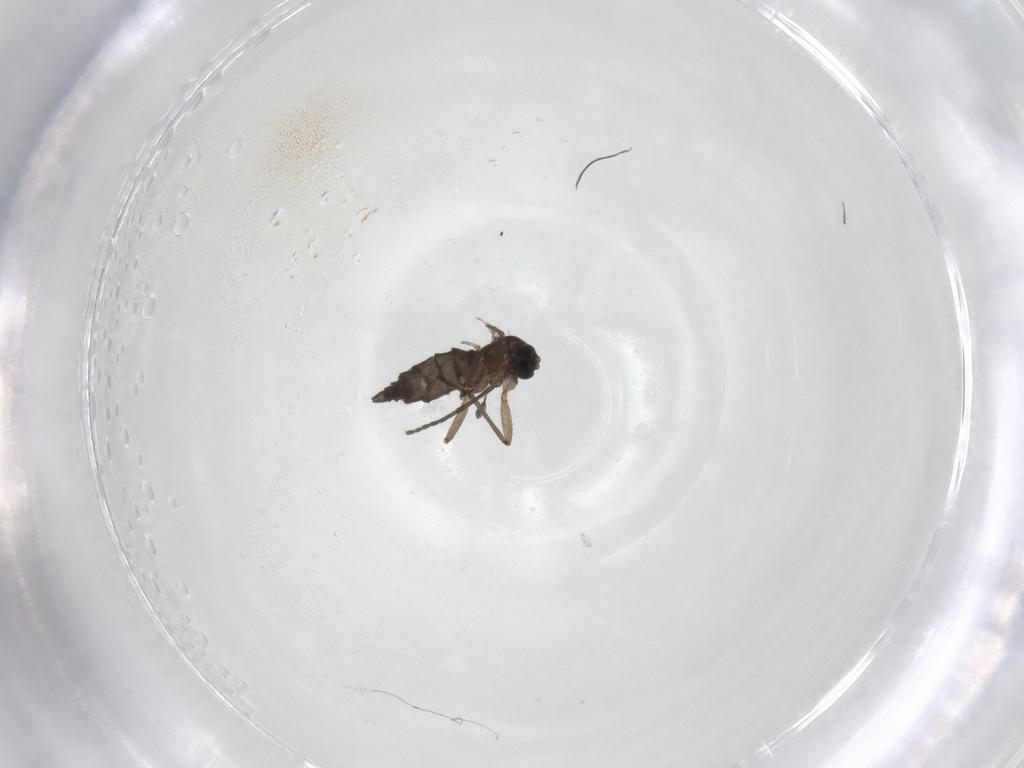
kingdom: Animalia
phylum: Arthropoda
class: Insecta
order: Diptera
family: Sciaridae
